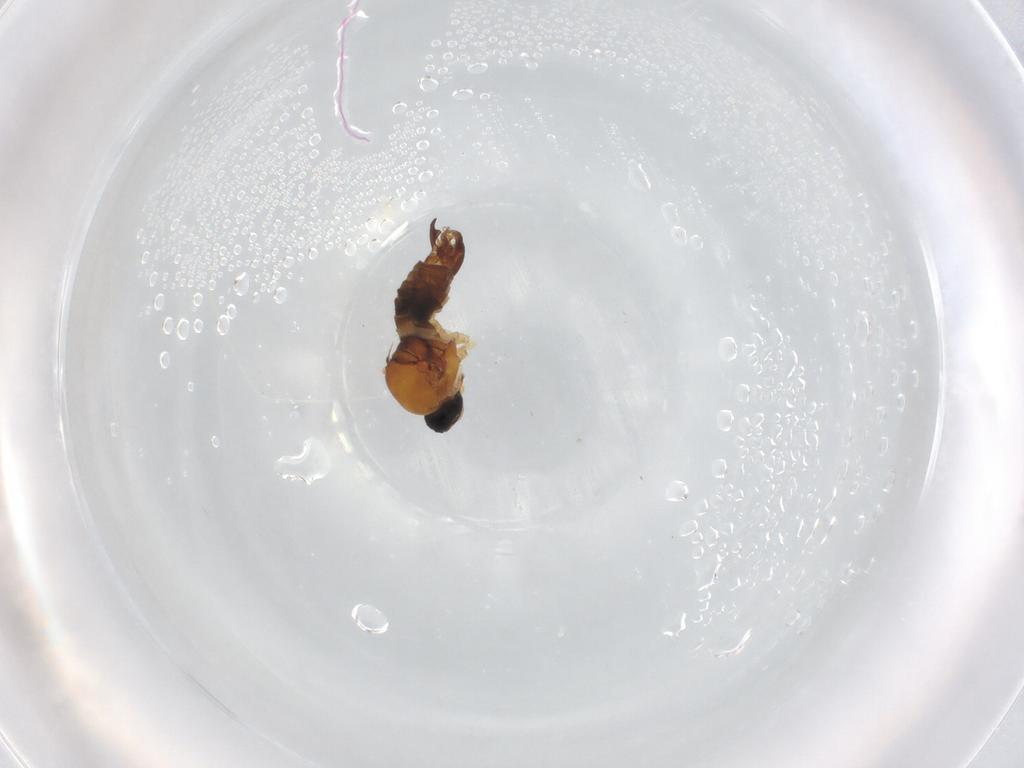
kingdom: Animalia
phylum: Arthropoda
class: Insecta
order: Diptera
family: Hybotidae
